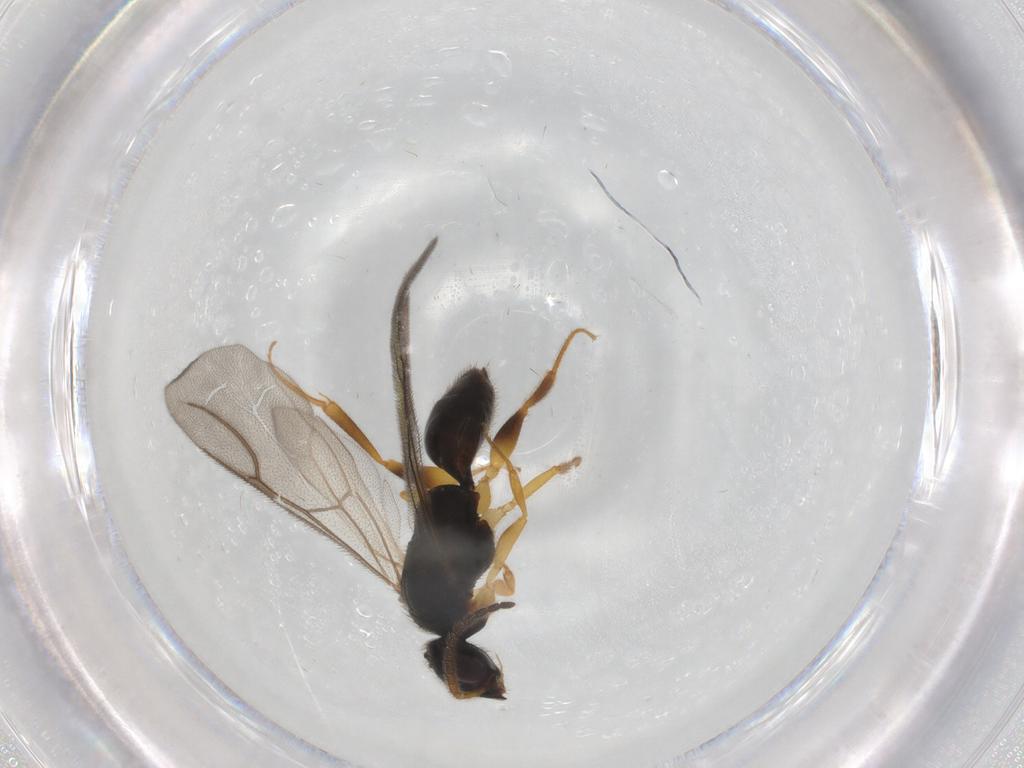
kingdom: Animalia
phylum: Arthropoda
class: Insecta
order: Hymenoptera
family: Bethylidae
